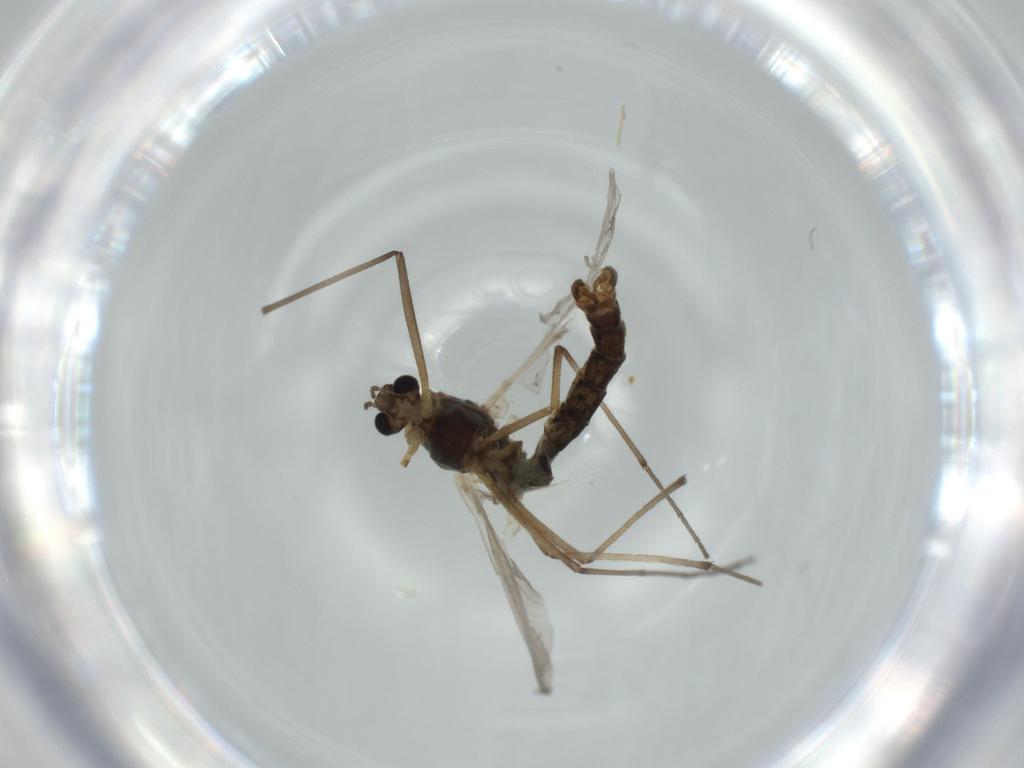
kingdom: Animalia
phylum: Arthropoda
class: Insecta
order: Diptera
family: Chironomidae
